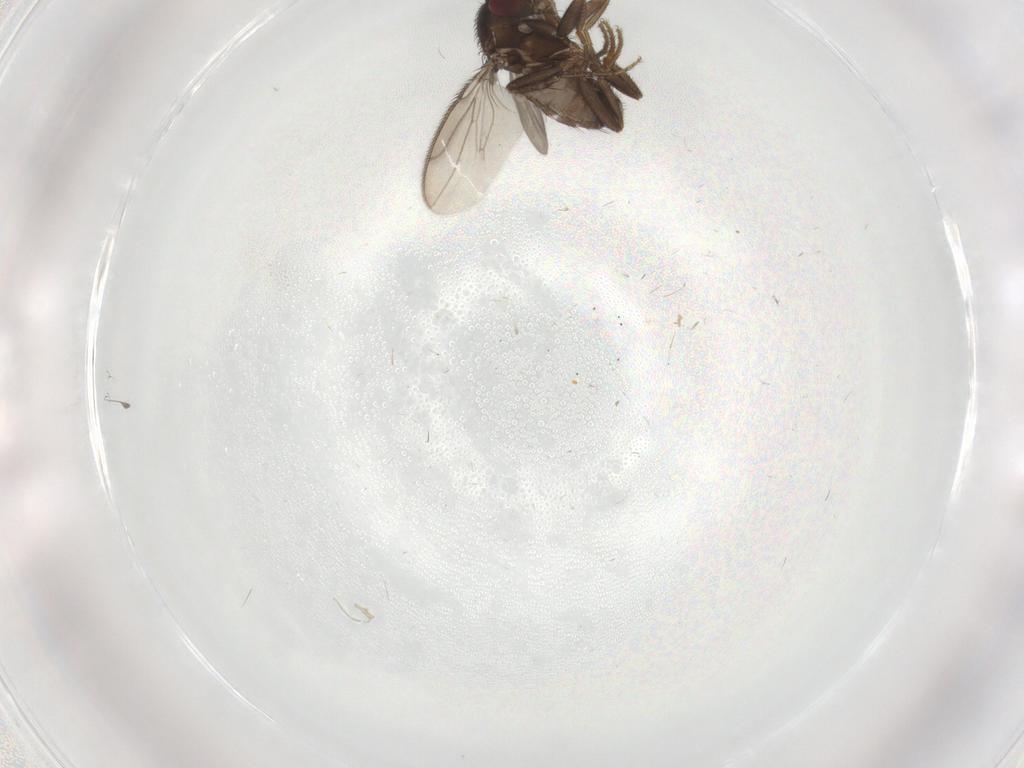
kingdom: Animalia
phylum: Arthropoda
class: Insecta
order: Diptera
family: Sphaeroceridae
